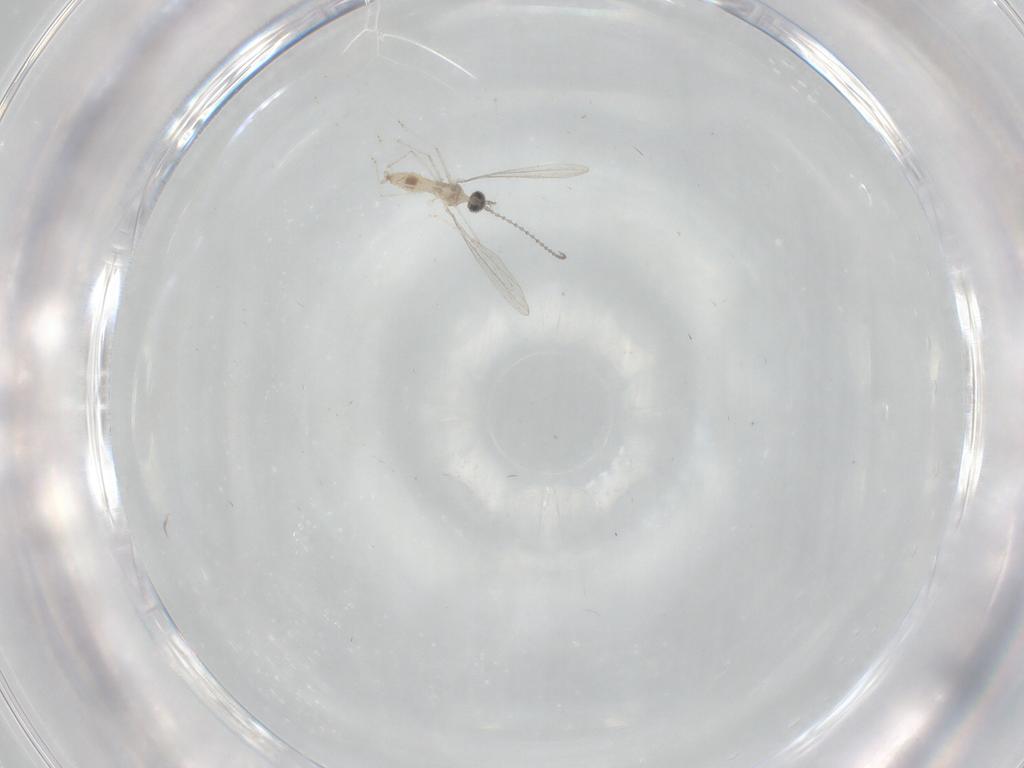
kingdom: Animalia
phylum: Arthropoda
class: Insecta
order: Diptera
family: Cecidomyiidae
